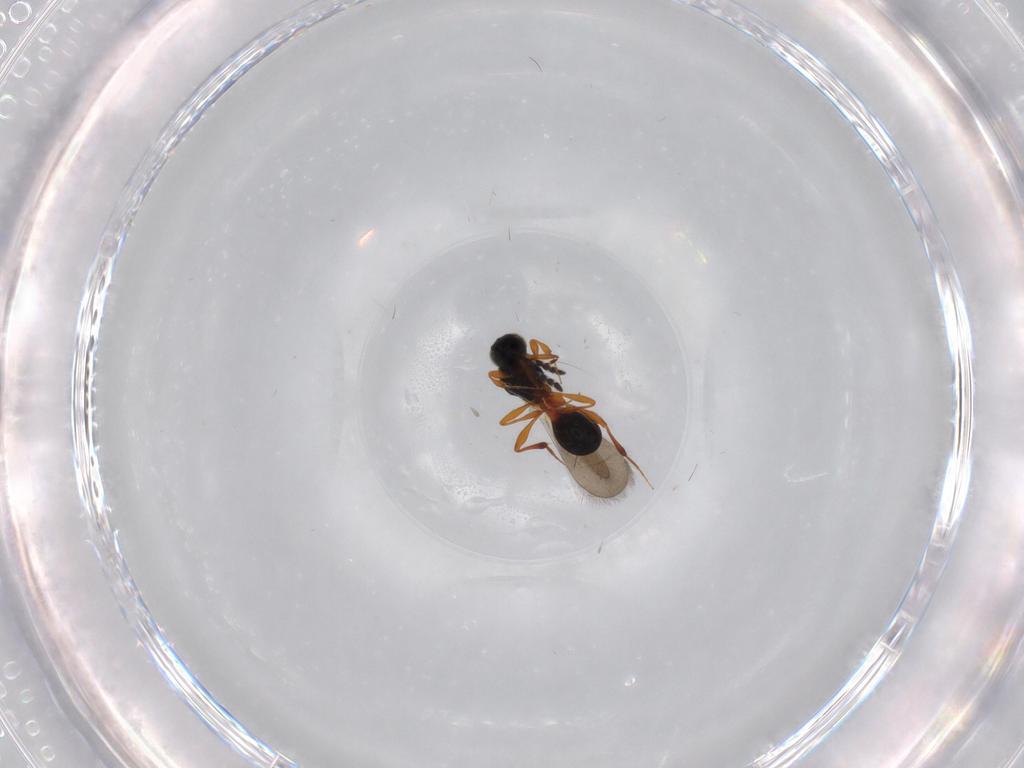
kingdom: Animalia
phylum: Arthropoda
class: Insecta
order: Hymenoptera
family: Platygastridae
